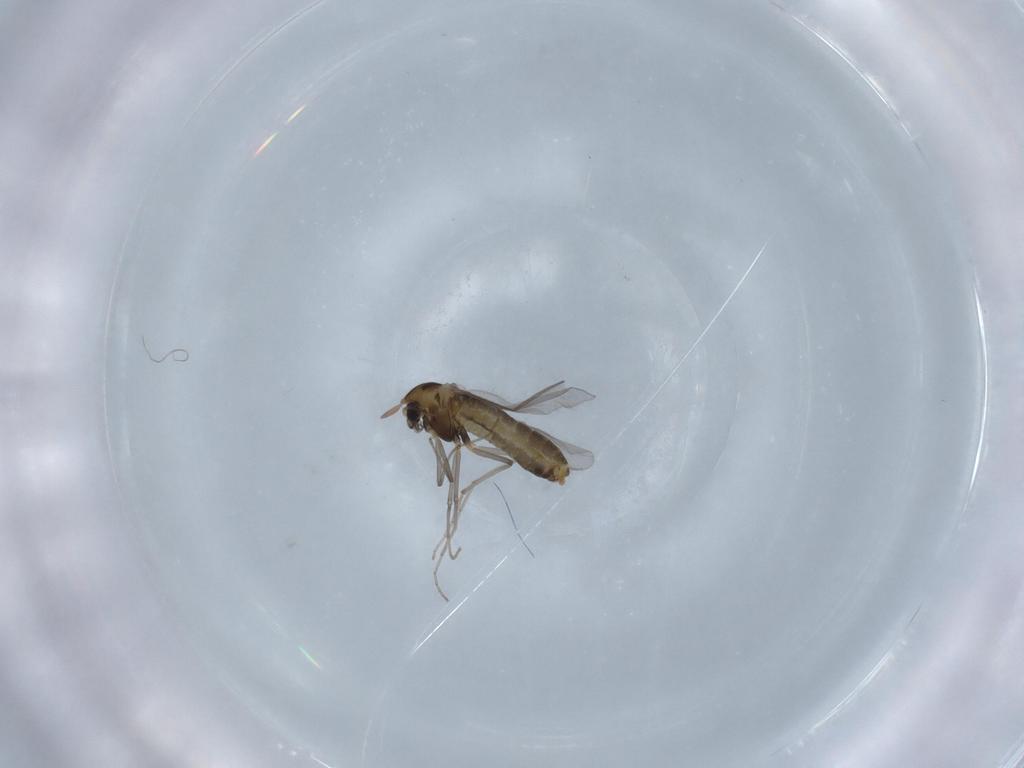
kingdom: Animalia
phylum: Arthropoda
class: Insecta
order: Diptera
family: Chironomidae
